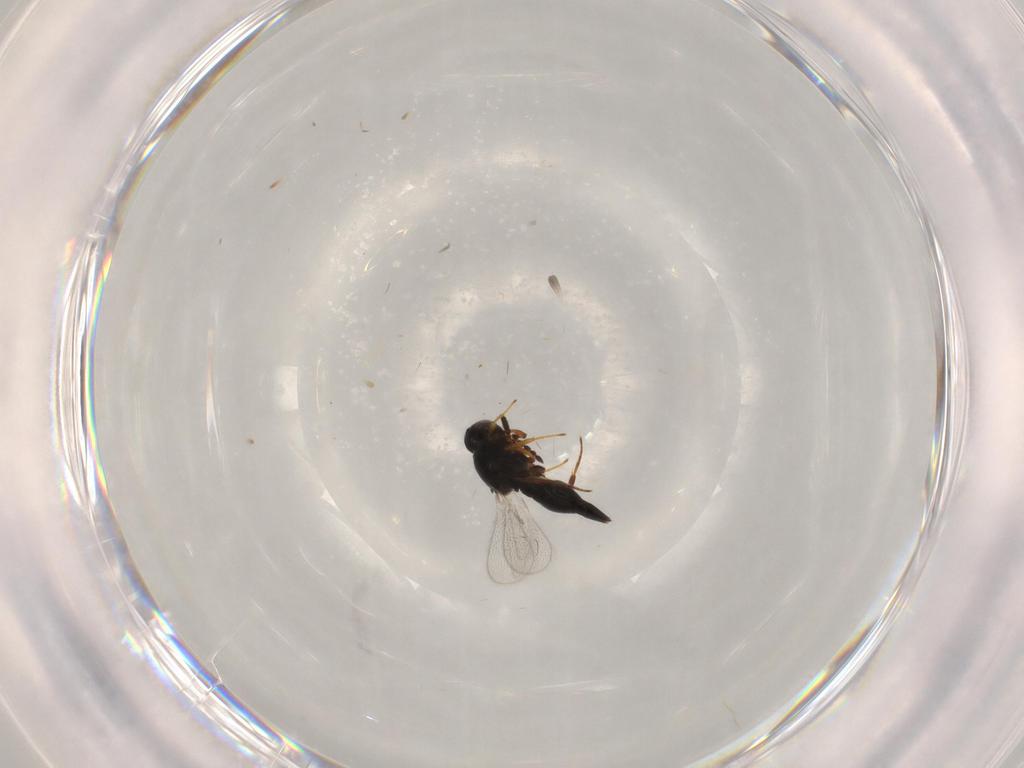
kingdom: Animalia
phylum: Arthropoda
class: Insecta
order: Hymenoptera
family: Platygastridae
